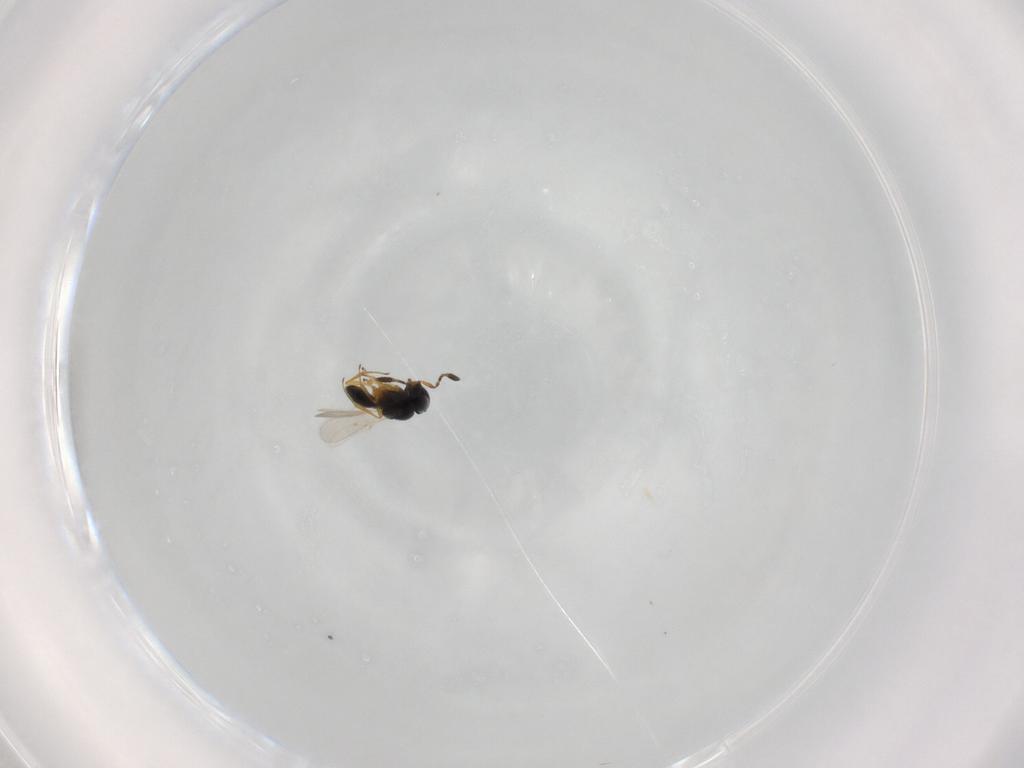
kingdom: Animalia
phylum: Arthropoda
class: Insecta
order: Hymenoptera
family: Scelionidae
